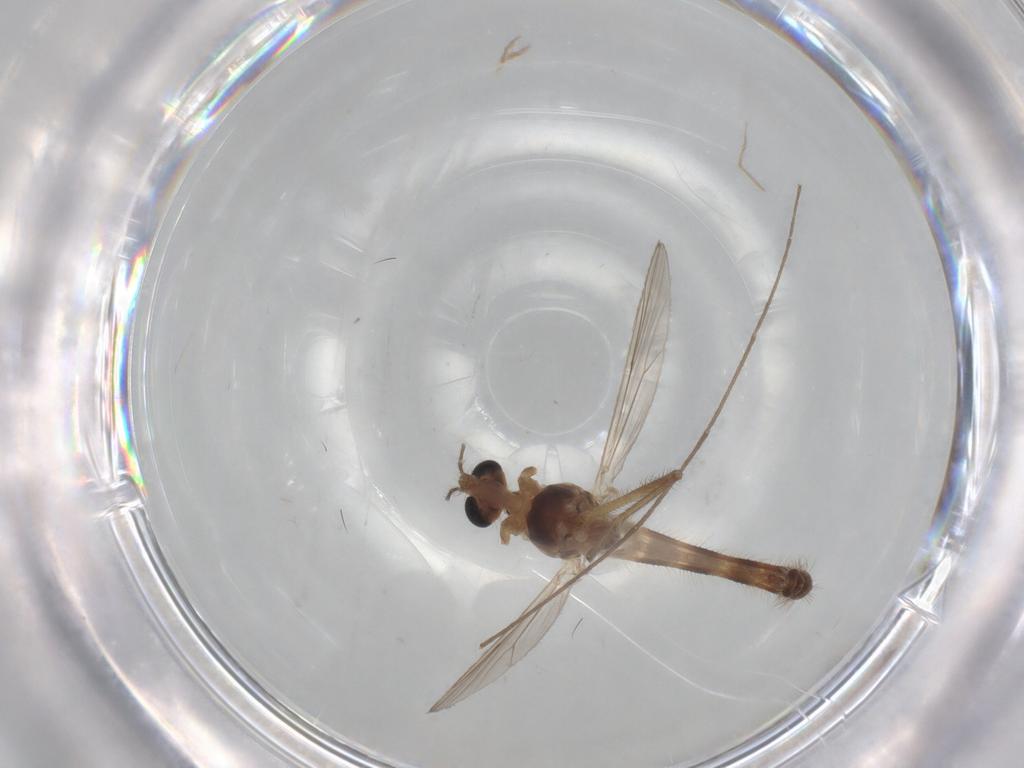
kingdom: Animalia
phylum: Arthropoda
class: Insecta
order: Diptera
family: Chironomidae
